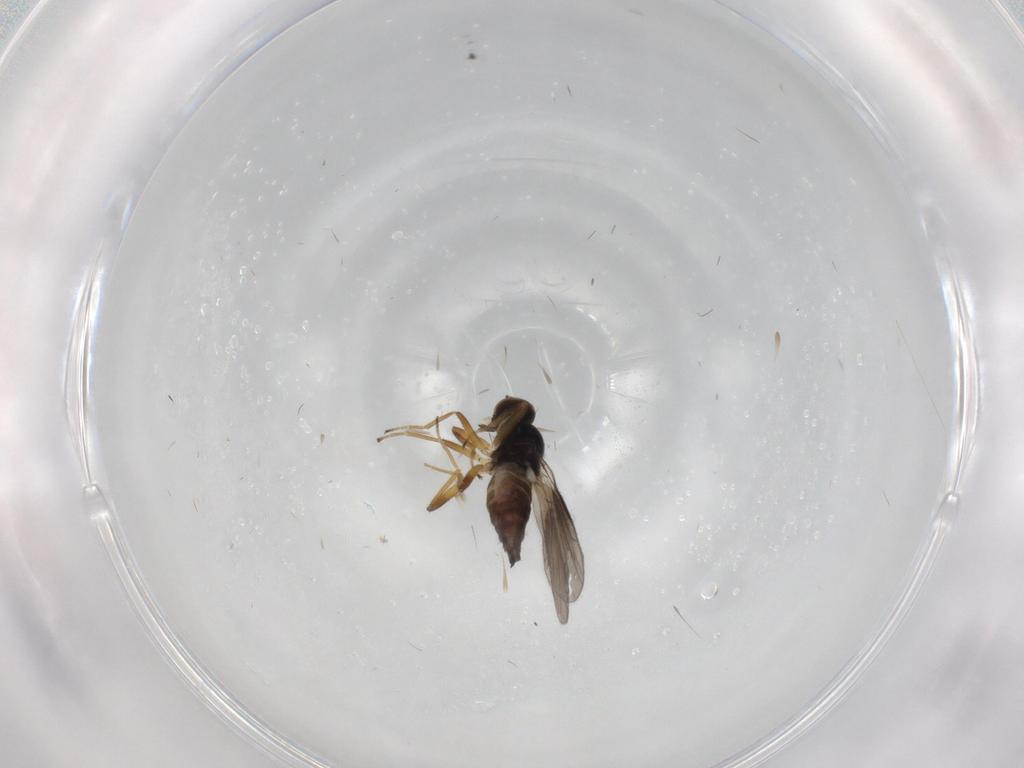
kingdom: Animalia
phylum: Arthropoda
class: Insecta
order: Diptera
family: Hybotidae
